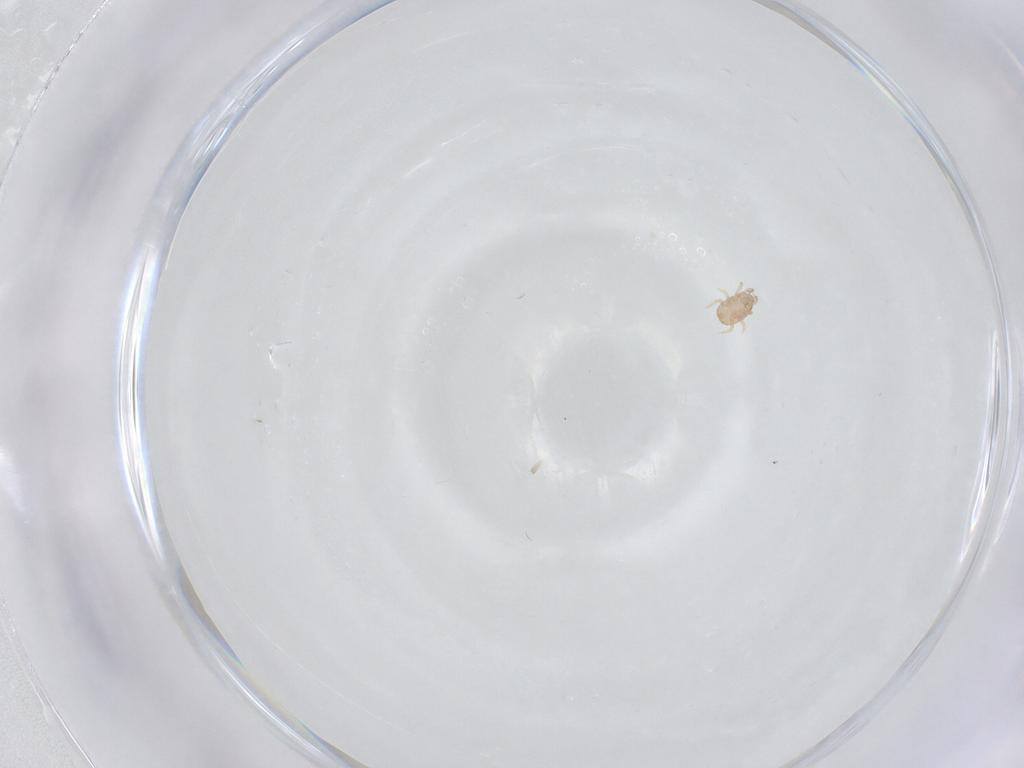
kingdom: Animalia
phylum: Arthropoda
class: Arachnida
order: Mesostigmata
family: Ascidae
